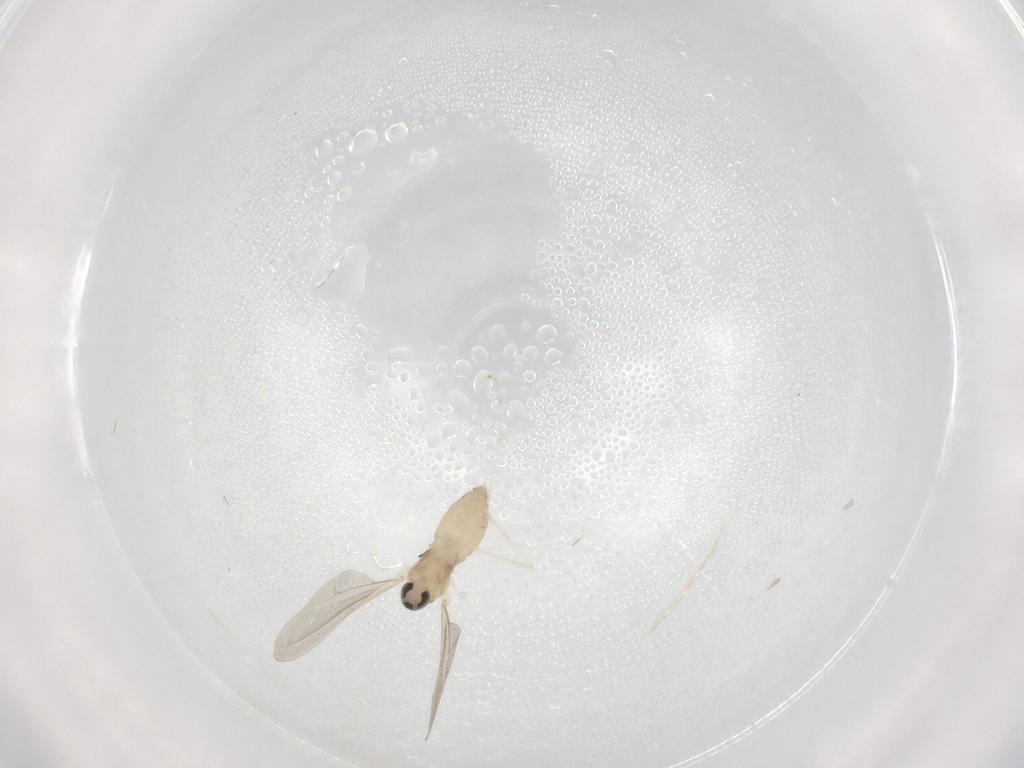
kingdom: Animalia
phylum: Arthropoda
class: Insecta
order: Diptera
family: Cecidomyiidae
